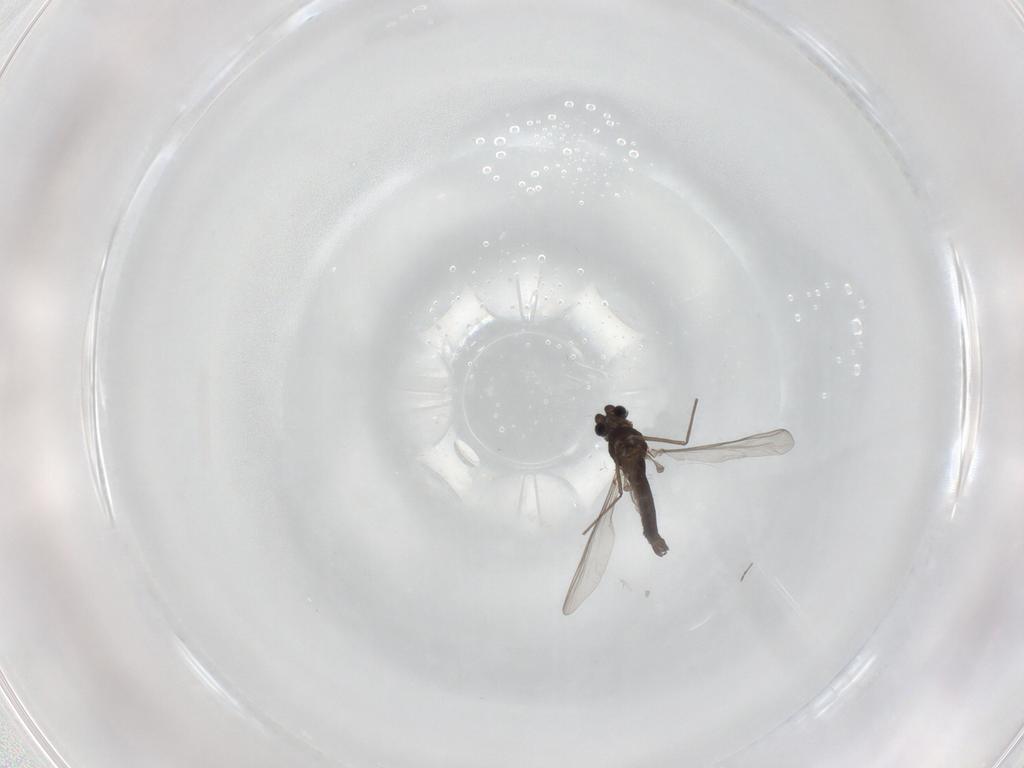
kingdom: Animalia
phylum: Arthropoda
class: Insecta
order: Diptera
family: Chironomidae
